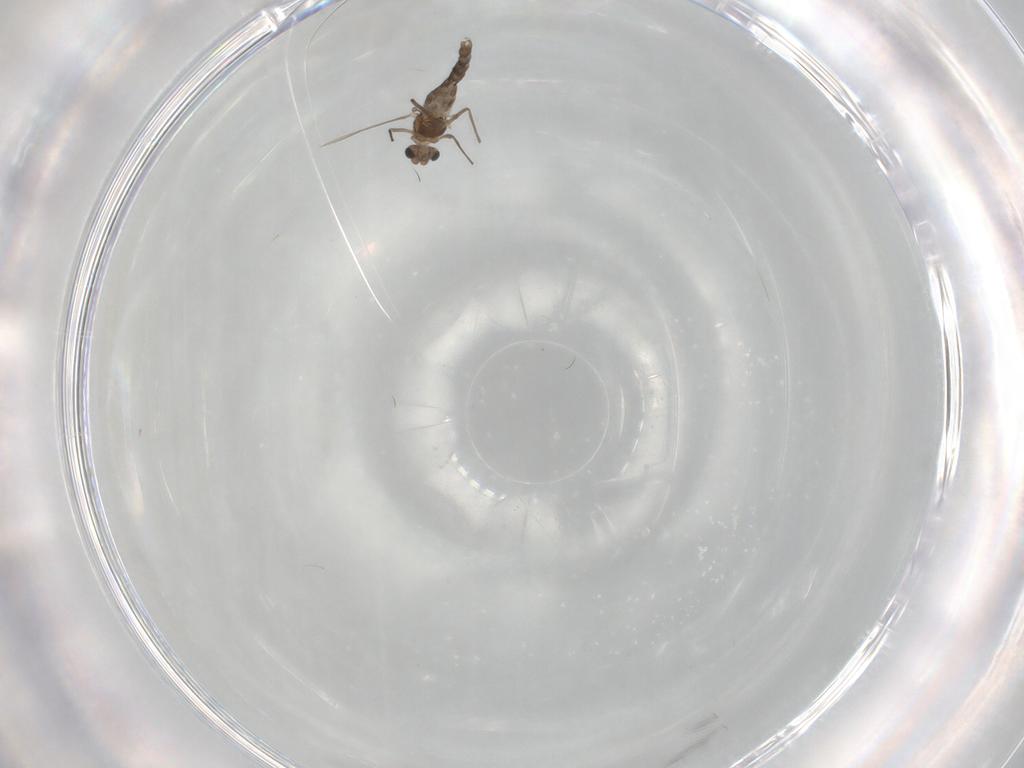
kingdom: Animalia
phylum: Arthropoda
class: Insecta
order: Diptera
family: Chironomidae
